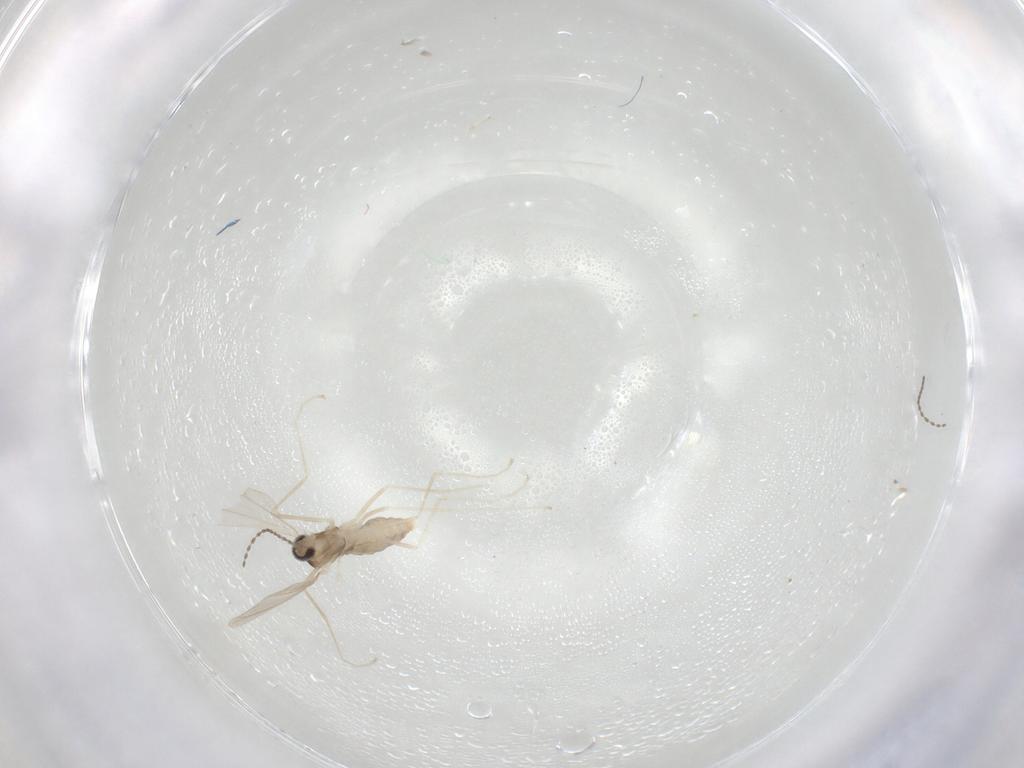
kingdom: Animalia
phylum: Arthropoda
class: Insecta
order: Diptera
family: Cecidomyiidae
